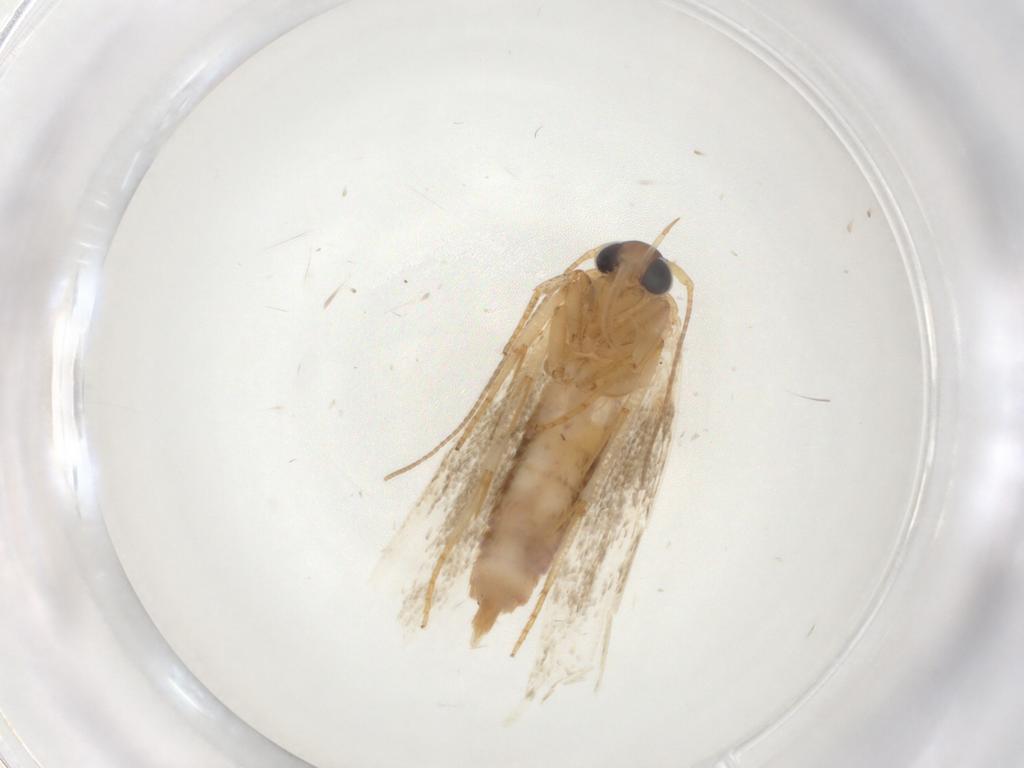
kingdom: Animalia
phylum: Arthropoda
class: Insecta
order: Lepidoptera
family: Blastobasidae
